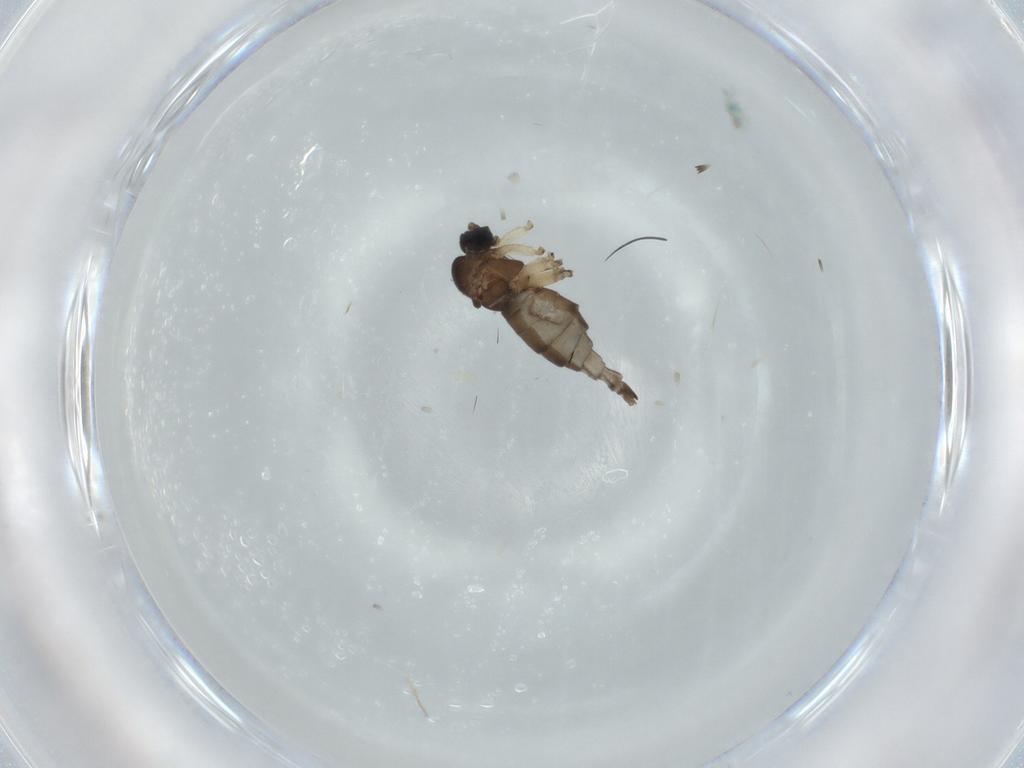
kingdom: Animalia
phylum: Arthropoda
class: Insecta
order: Diptera
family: Sciaridae
